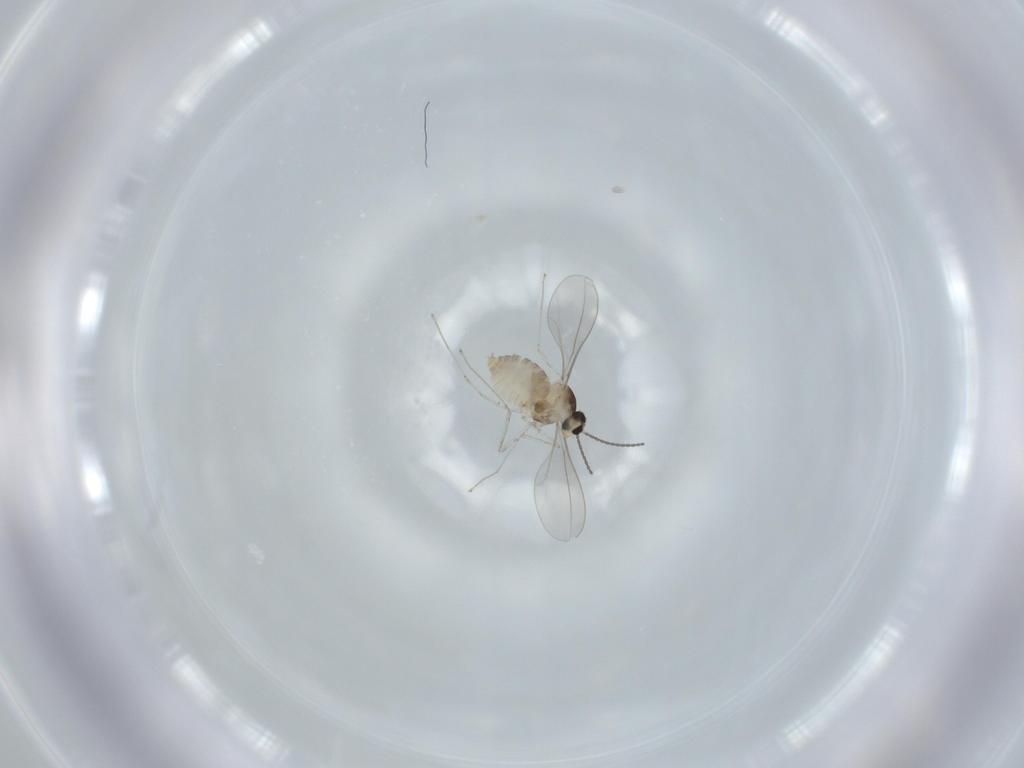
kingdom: Animalia
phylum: Arthropoda
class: Insecta
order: Diptera
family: Cecidomyiidae
